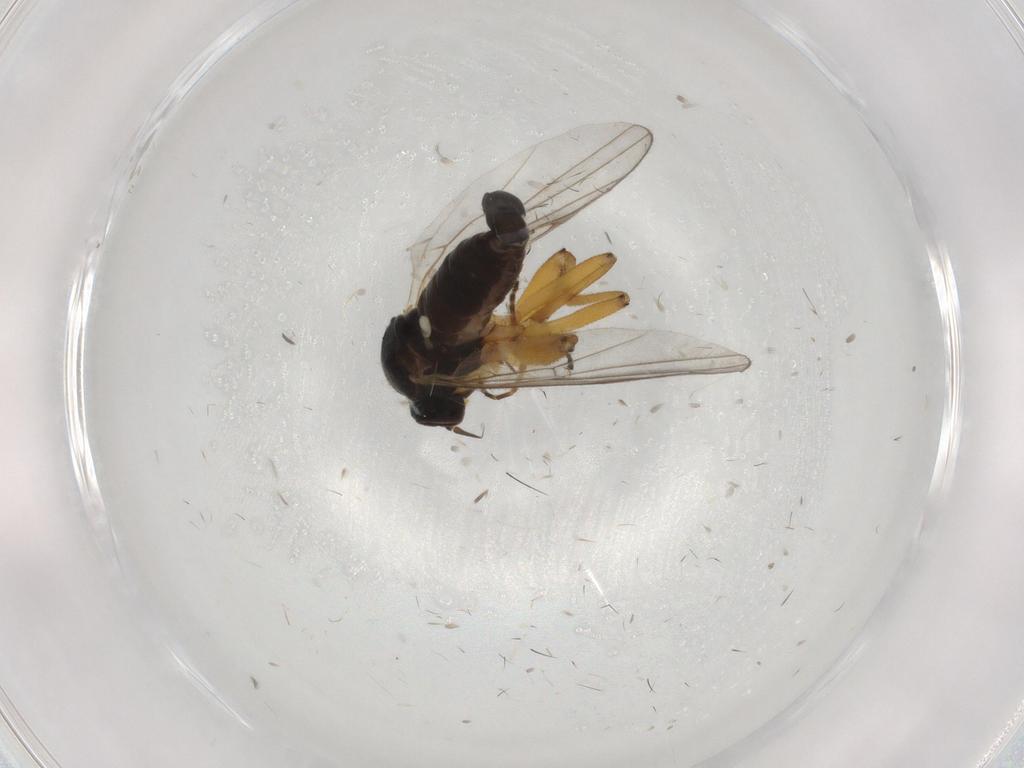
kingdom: Animalia
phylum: Arthropoda
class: Insecta
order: Diptera
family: Hybotidae
